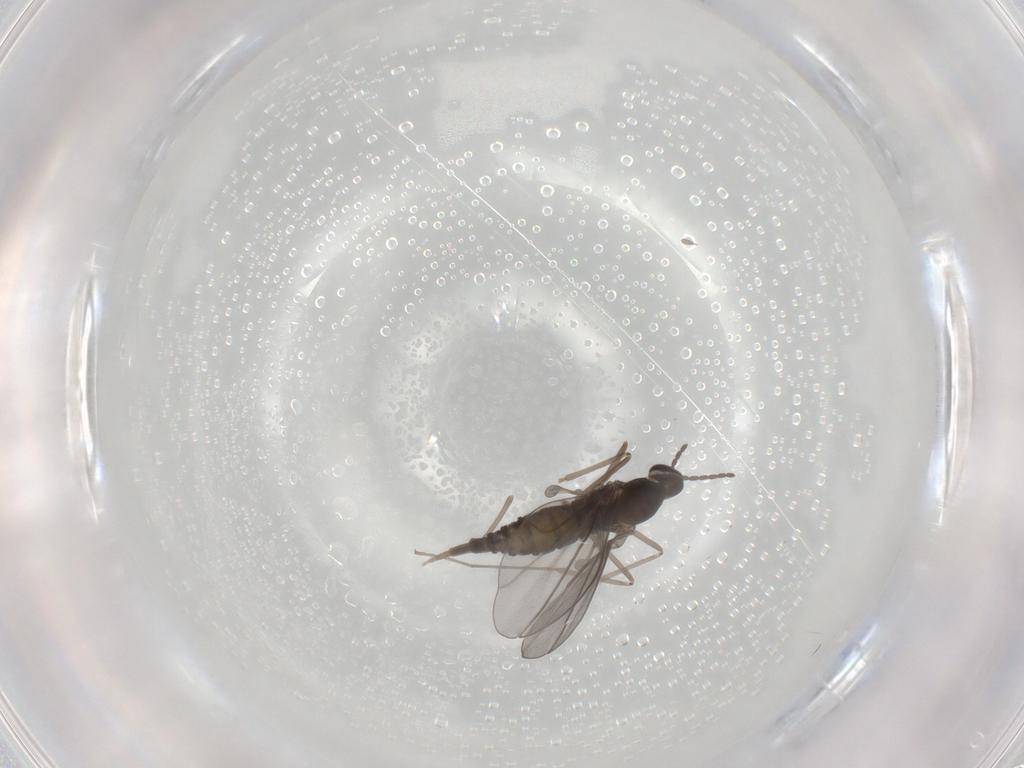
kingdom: Animalia
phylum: Arthropoda
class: Insecta
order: Diptera
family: Cecidomyiidae
